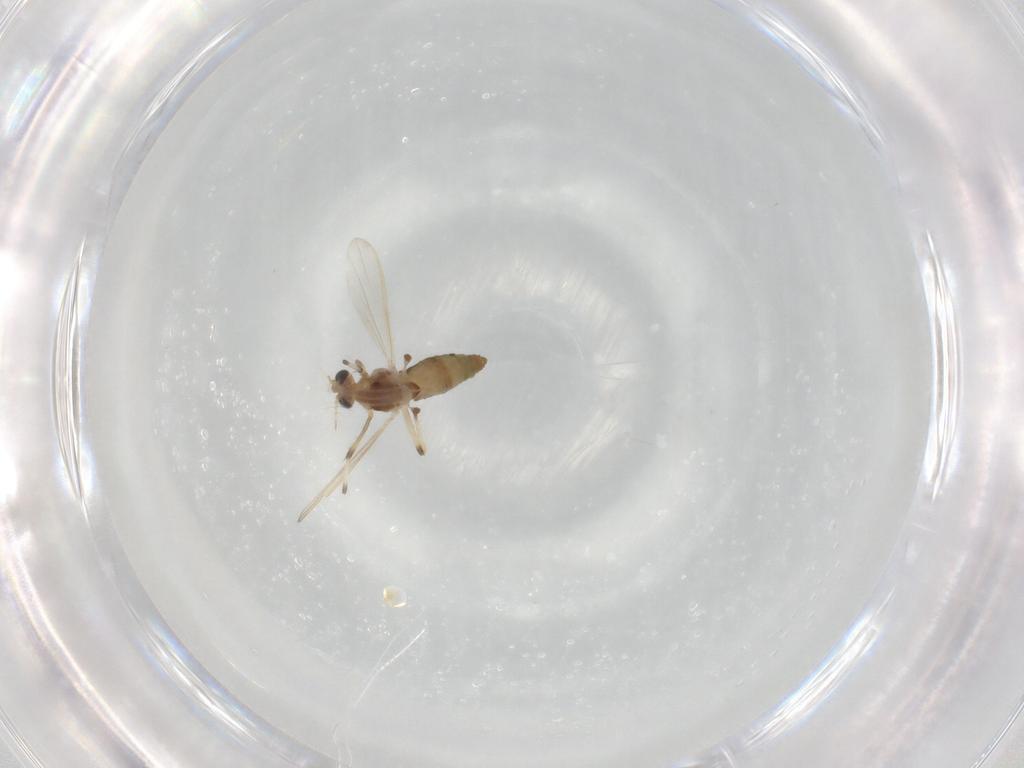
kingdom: Animalia
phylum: Arthropoda
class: Insecta
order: Diptera
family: Chironomidae
